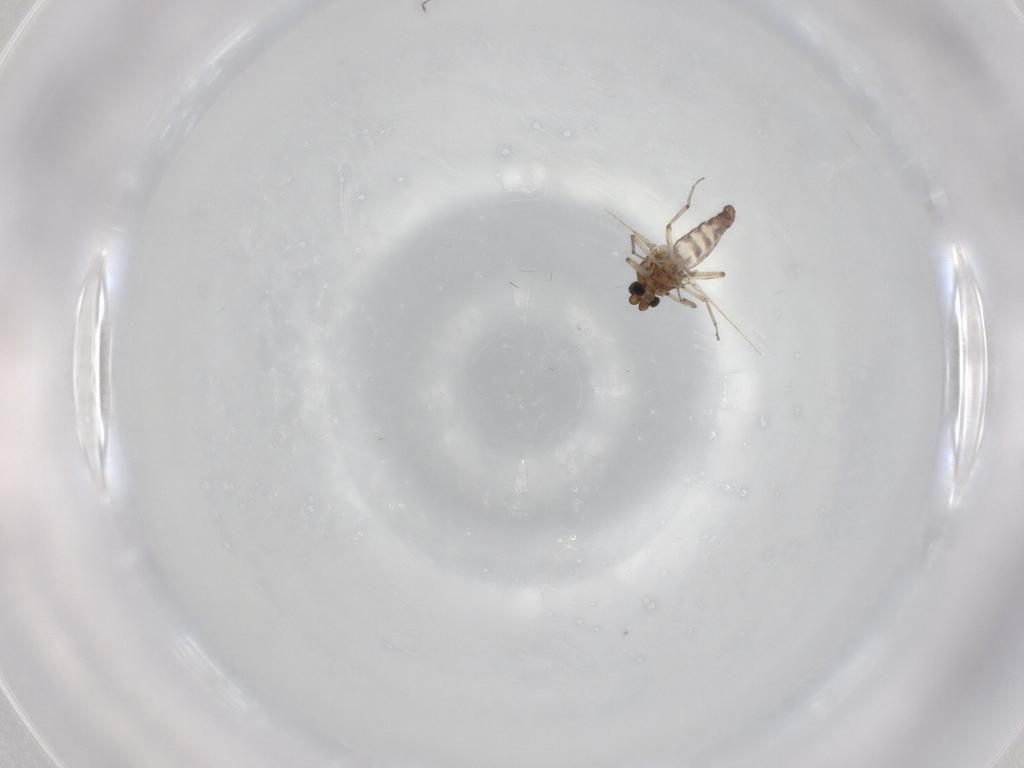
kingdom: Animalia
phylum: Arthropoda
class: Insecta
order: Diptera
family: Ceratopogonidae
